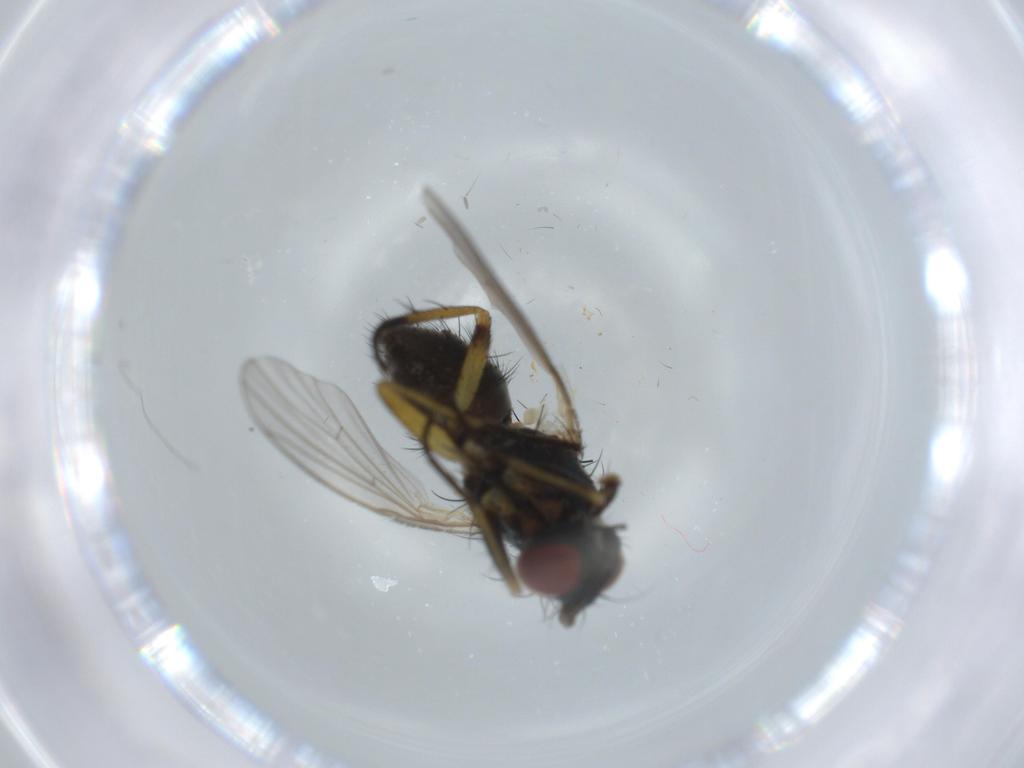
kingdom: Animalia
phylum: Arthropoda
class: Insecta
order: Diptera
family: Muscidae
